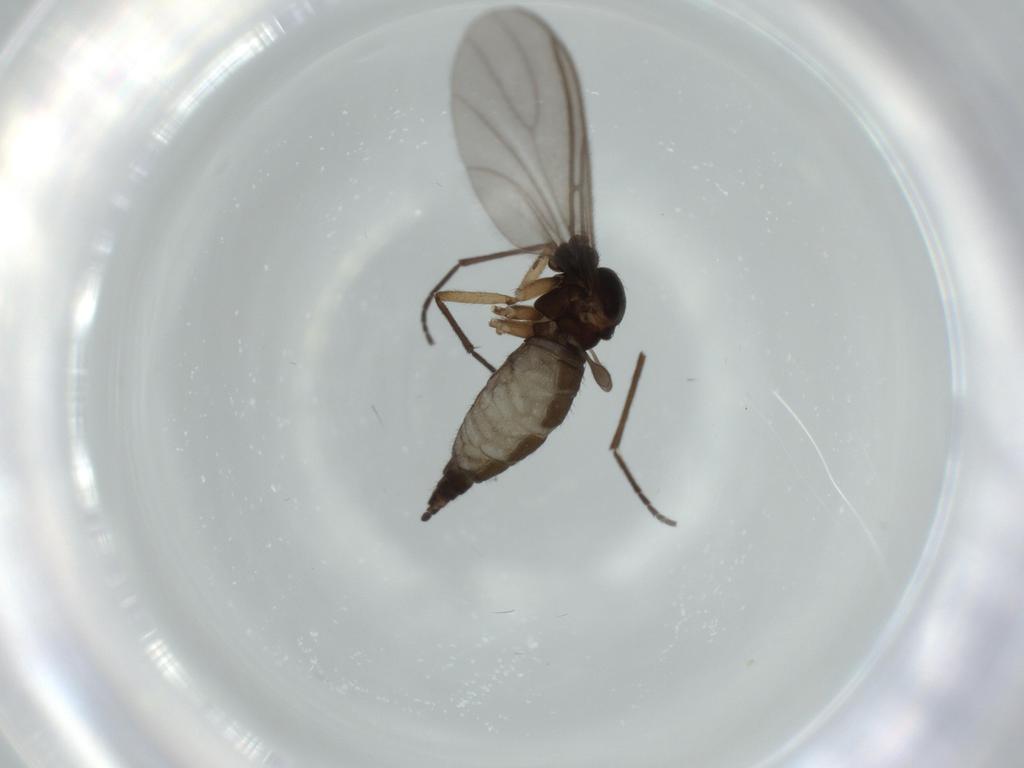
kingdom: Animalia
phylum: Arthropoda
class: Insecta
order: Diptera
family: Sciaridae
